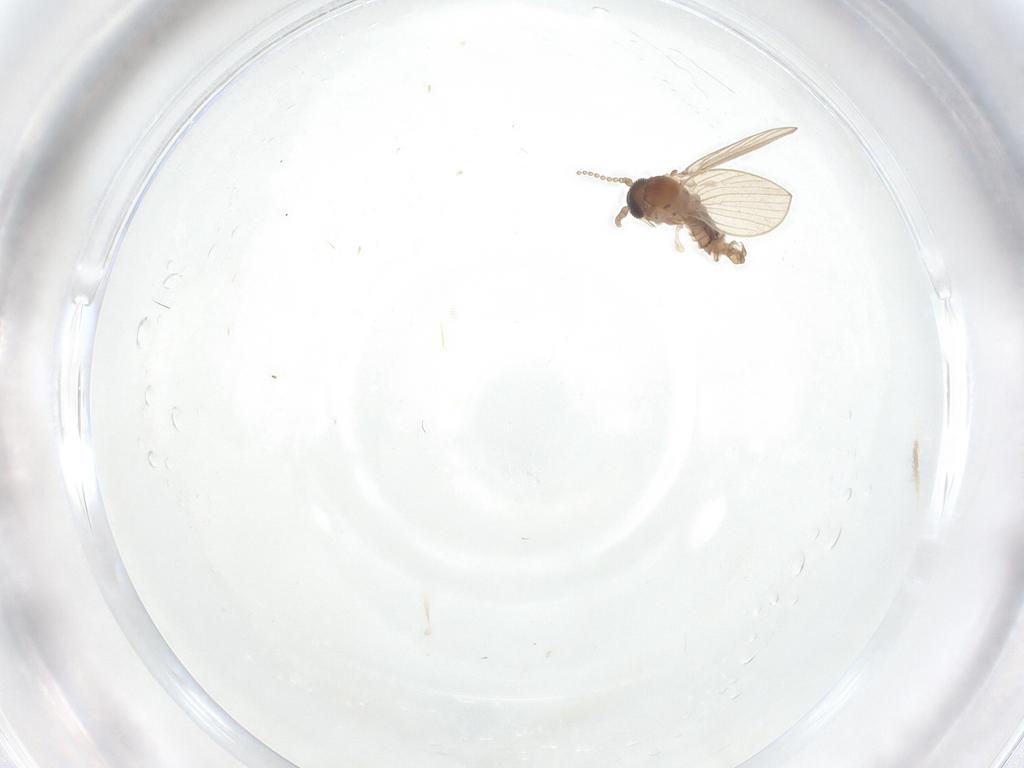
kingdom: Animalia
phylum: Arthropoda
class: Insecta
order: Diptera
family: Psychodidae
